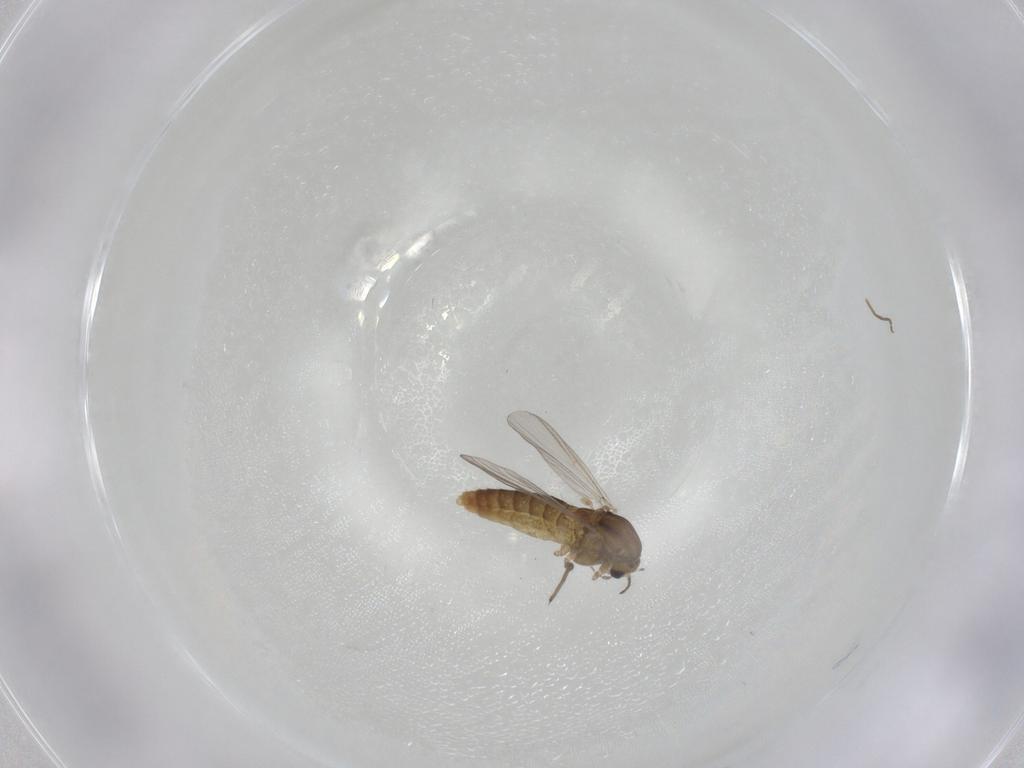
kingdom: Animalia
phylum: Arthropoda
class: Insecta
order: Diptera
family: Chironomidae
